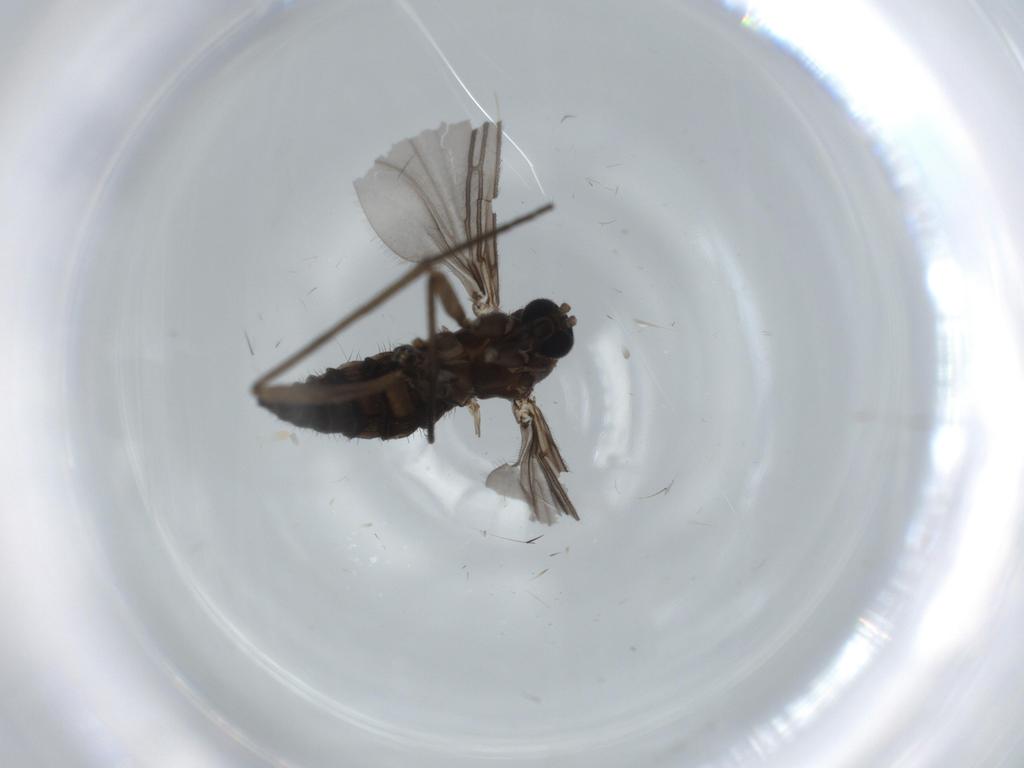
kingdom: Animalia
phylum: Arthropoda
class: Insecta
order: Diptera
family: Sciaridae
